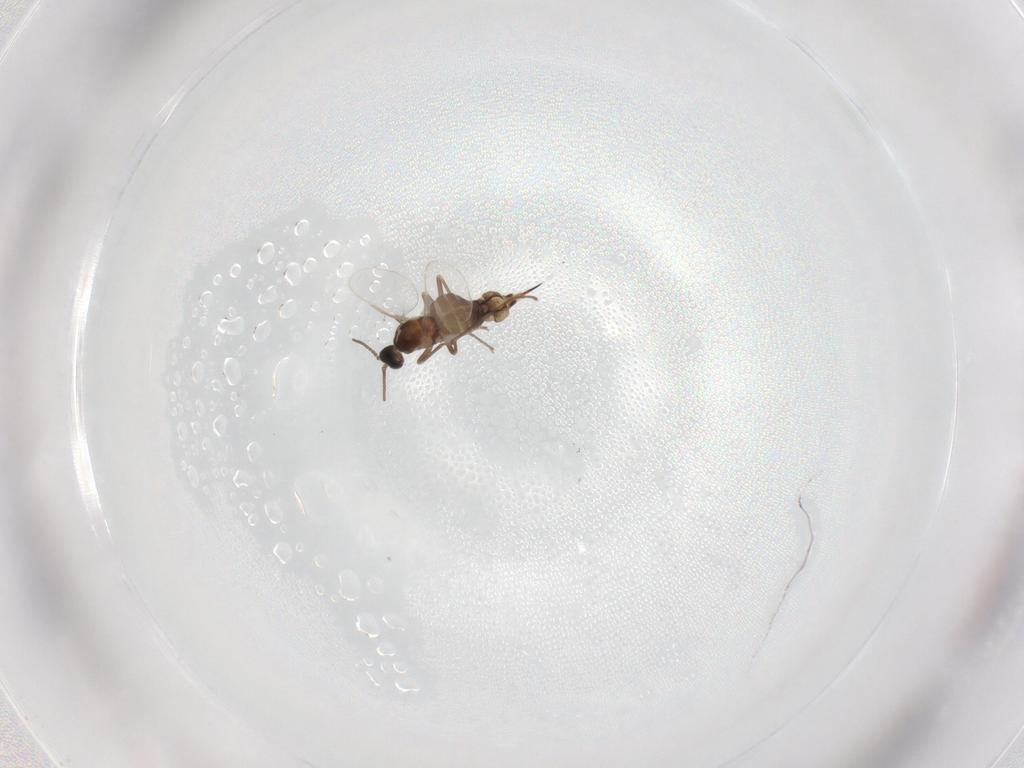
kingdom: Animalia
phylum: Arthropoda
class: Insecta
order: Diptera
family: Cecidomyiidae
